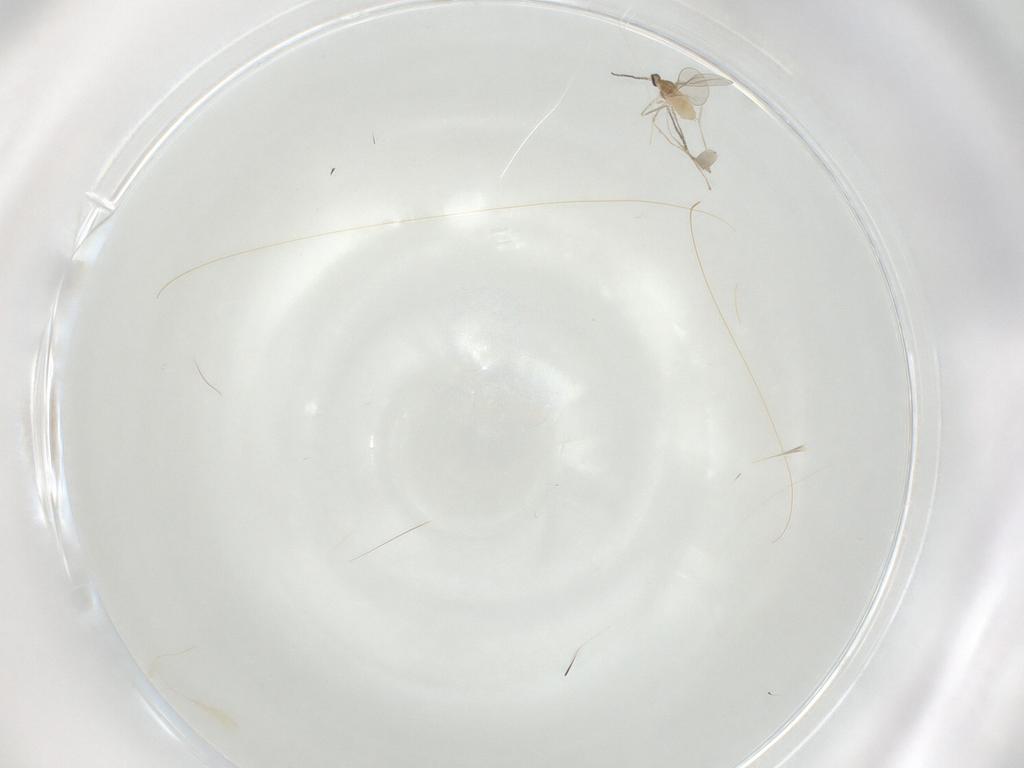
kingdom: Animalia
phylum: Arthropoda
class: Insecta
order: Diptera
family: Cecidomyiidae
